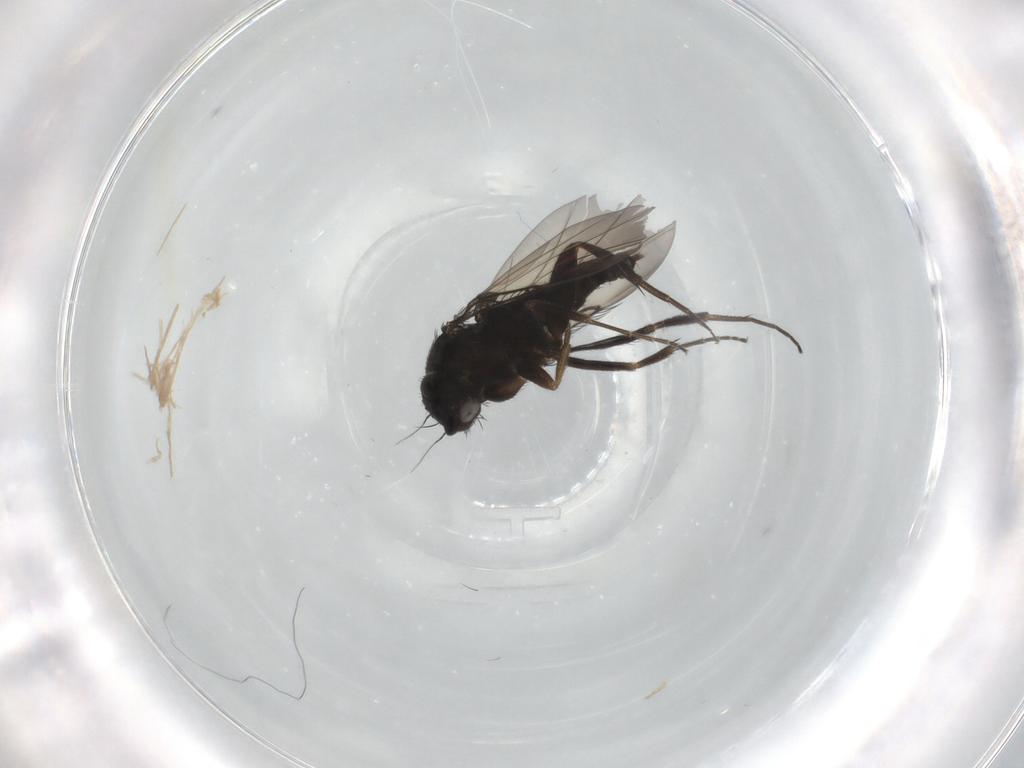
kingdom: Animalia
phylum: Arthropoda
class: Insecta
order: Diptera
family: Phoridae
